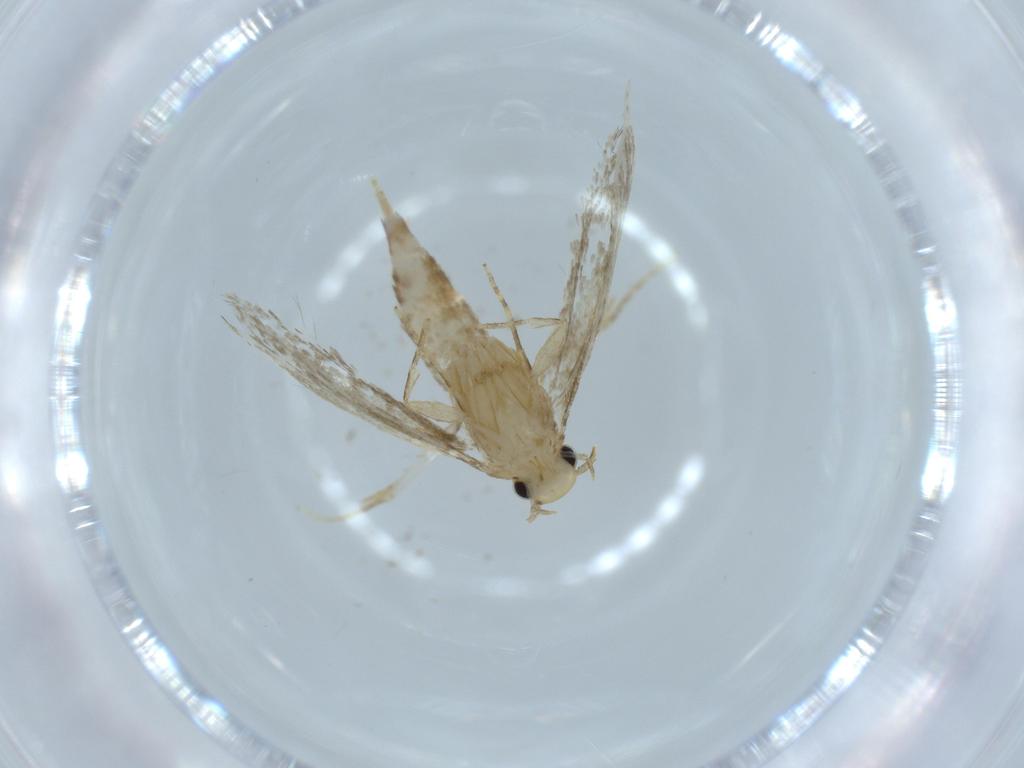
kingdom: Animalia
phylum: Arthropoda
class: Insecta
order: Lepidoptera
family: Tineidae
